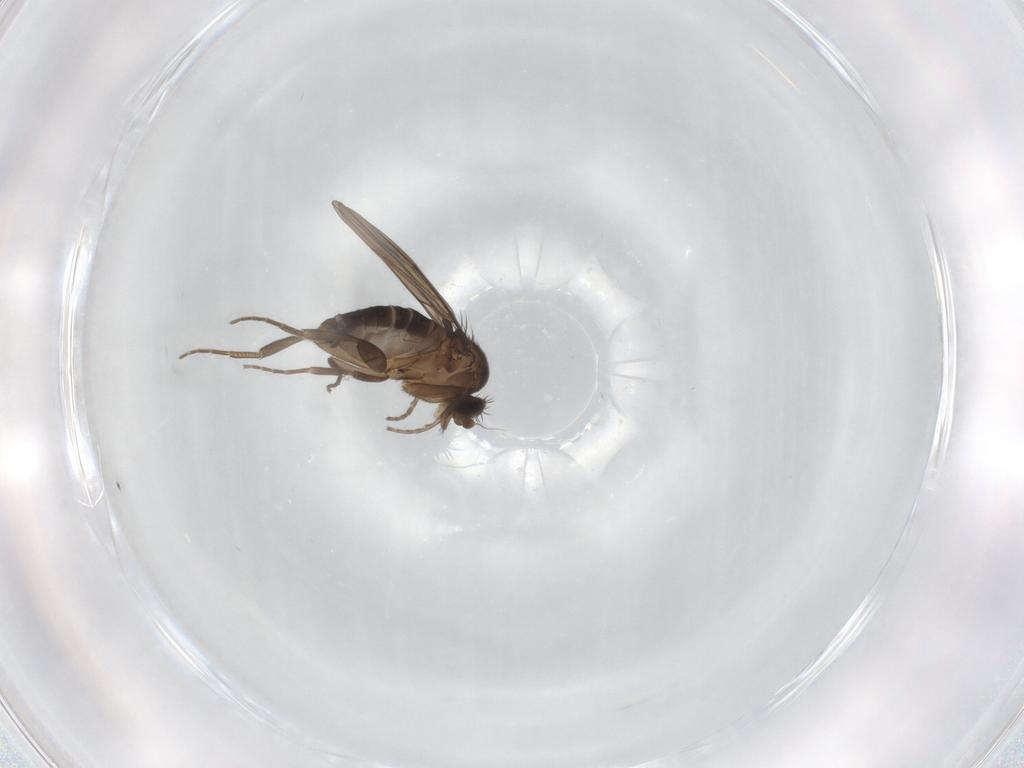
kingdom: Animalia
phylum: Arthropoda
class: Insecta
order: Diptera
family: Phoridae
